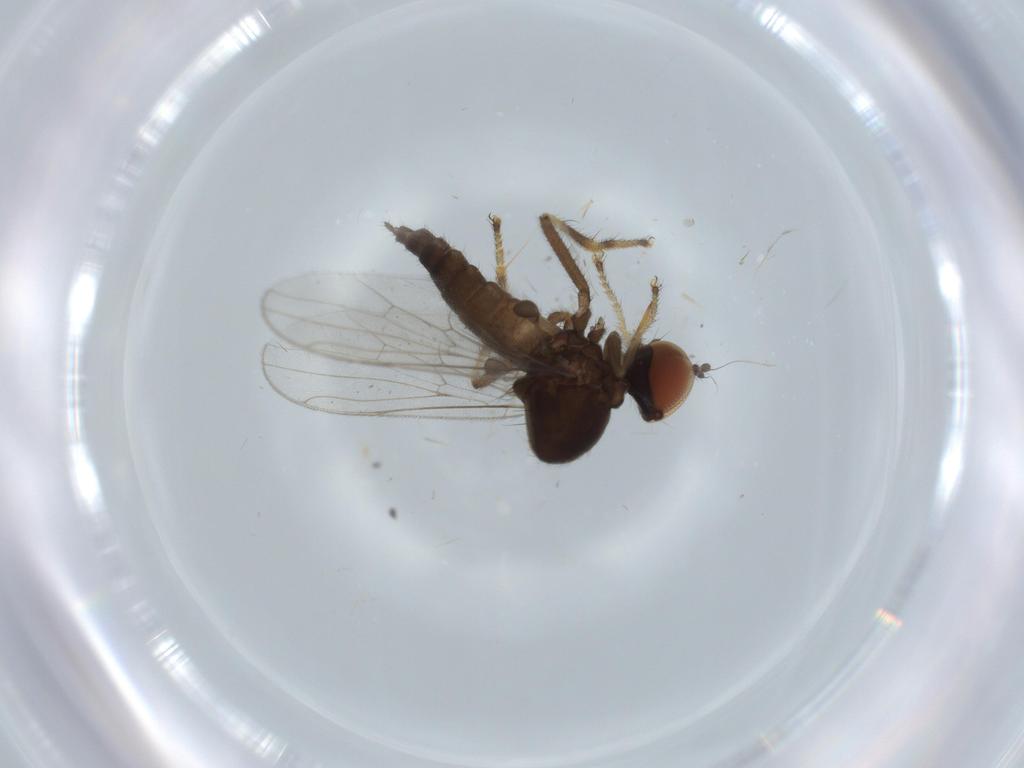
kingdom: Animalia
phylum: Arthropoda
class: Insecta
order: Diptera
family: Hybotidae
